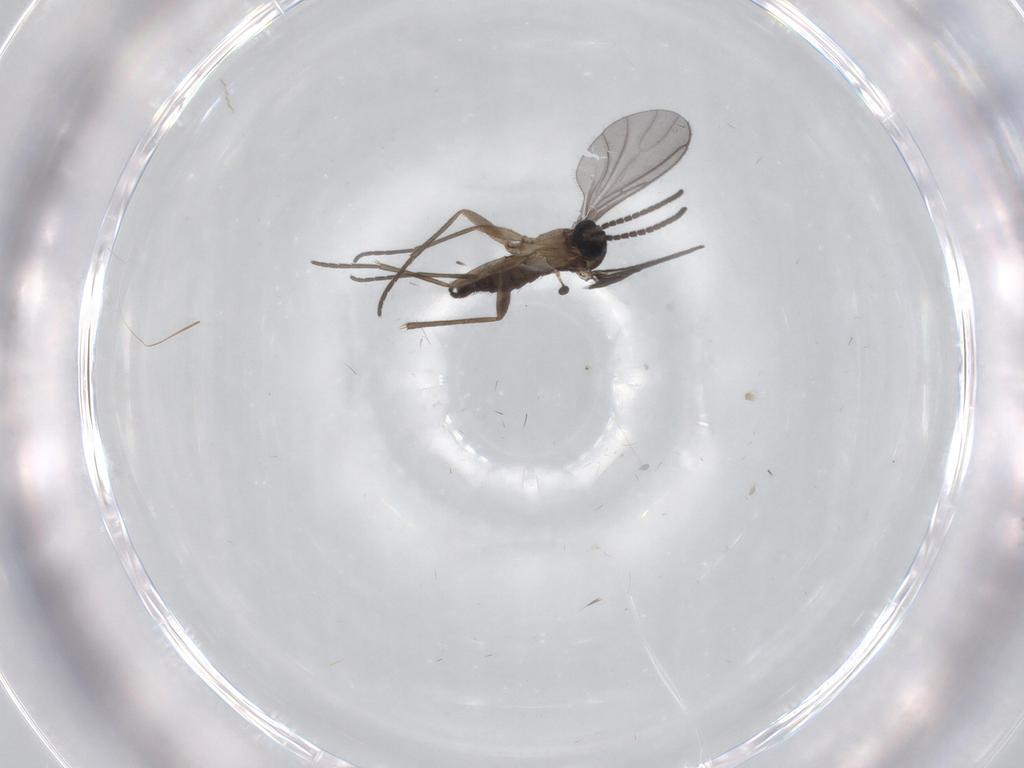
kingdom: Animalia
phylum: Arthropoda
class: Insecta
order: Diptera
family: Sciaridae
